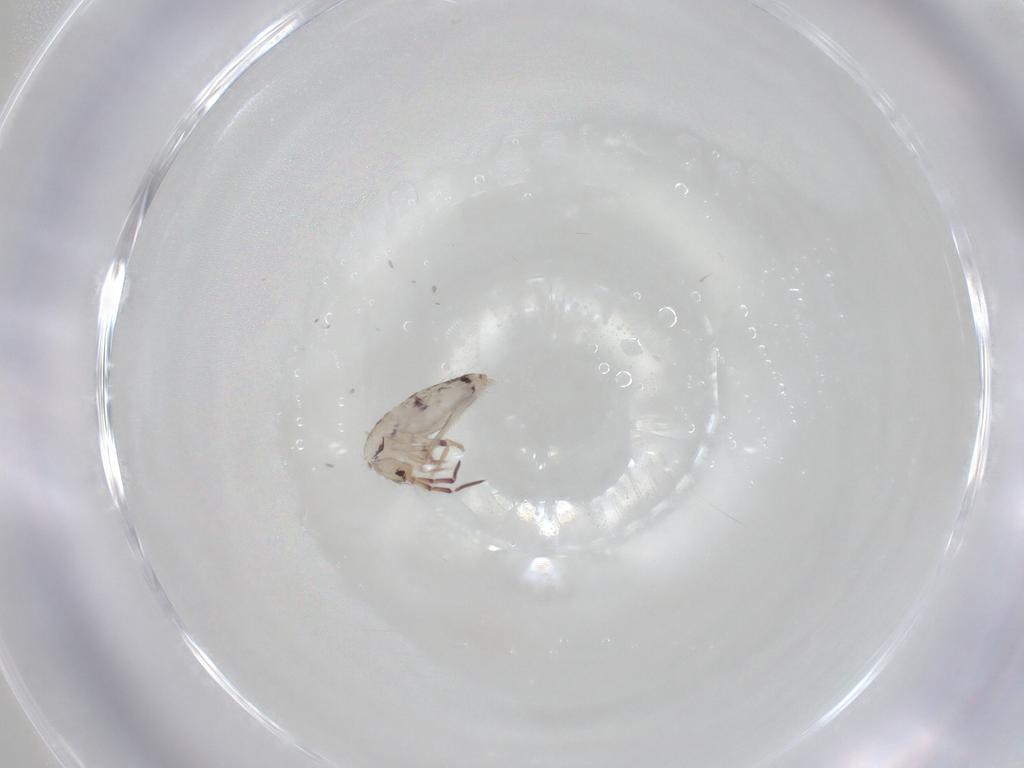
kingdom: Animalia
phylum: Arthropoda
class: Collembola
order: Entomobryomorpha
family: Entomobryidae
